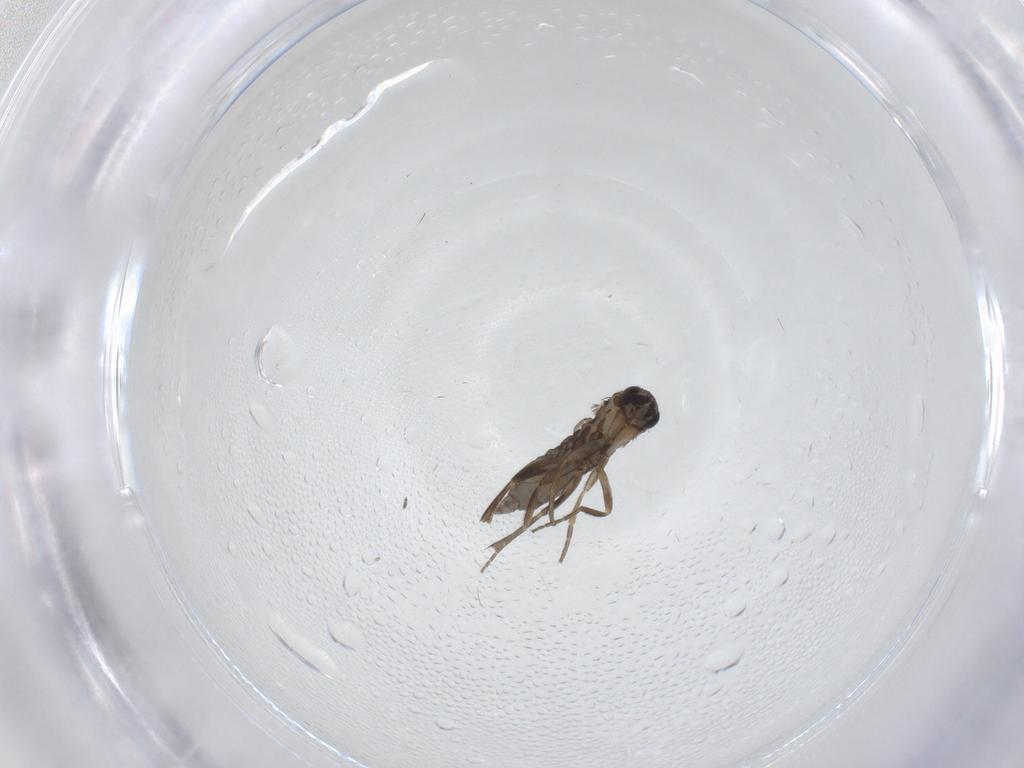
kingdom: Animalia
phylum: Arthropoda
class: Insecta
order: Diptera
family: Phoridae
